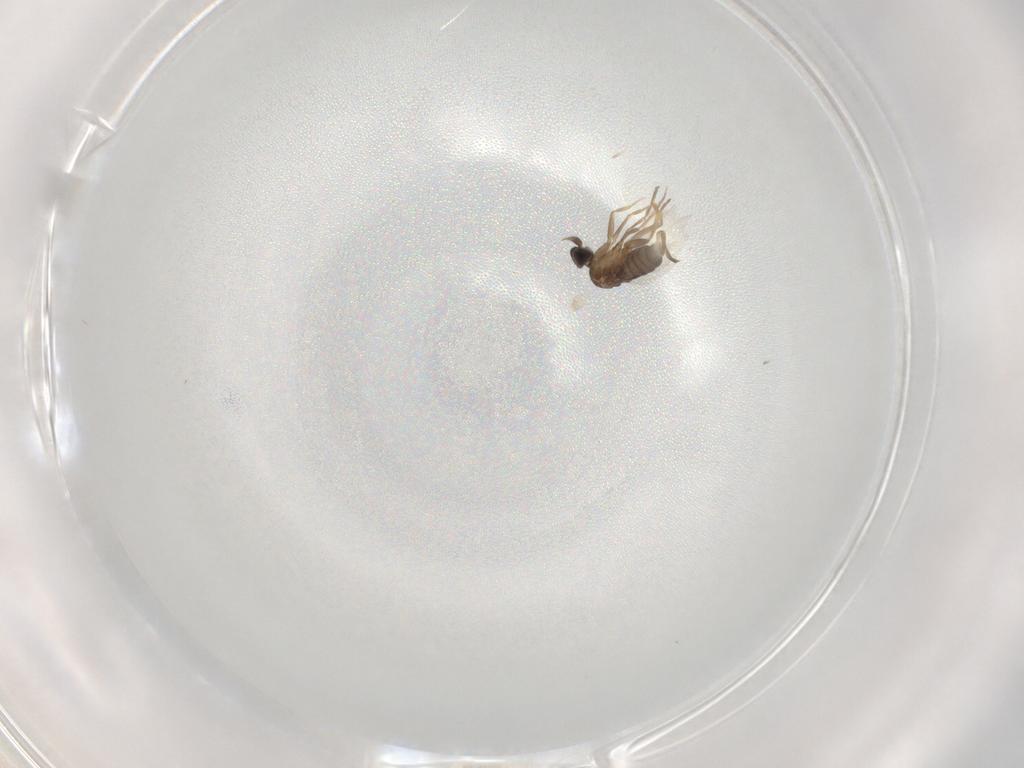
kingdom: Animalia
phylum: Arthropoda
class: Insecta
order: Diptera
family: Phoridae
